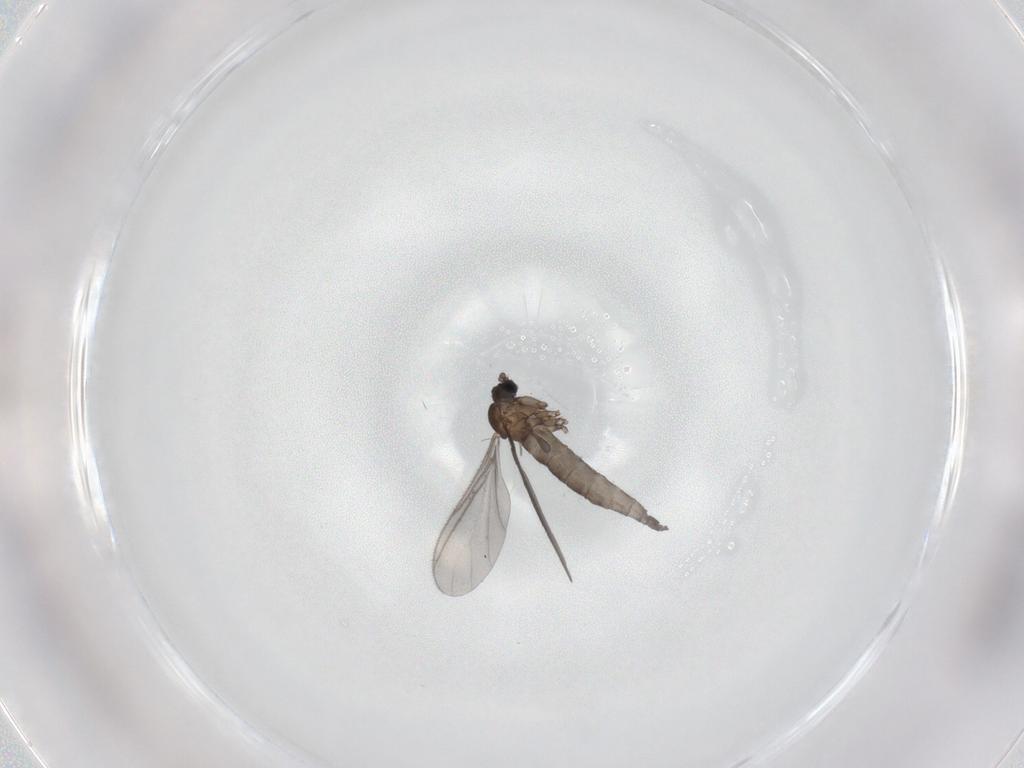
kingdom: Animalia
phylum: Arthropoda
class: Insecta
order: Diptera
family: Sciaridae
